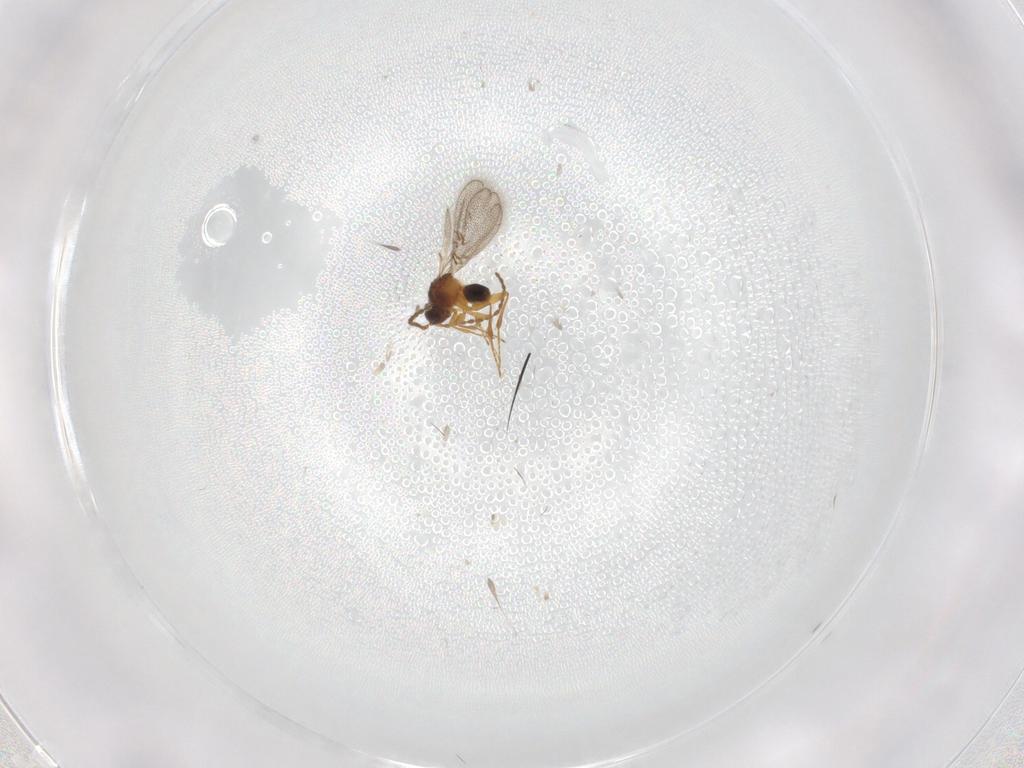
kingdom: Animalia
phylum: Arthropoda
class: Insecta
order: Hymenoptera
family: Figitidae
